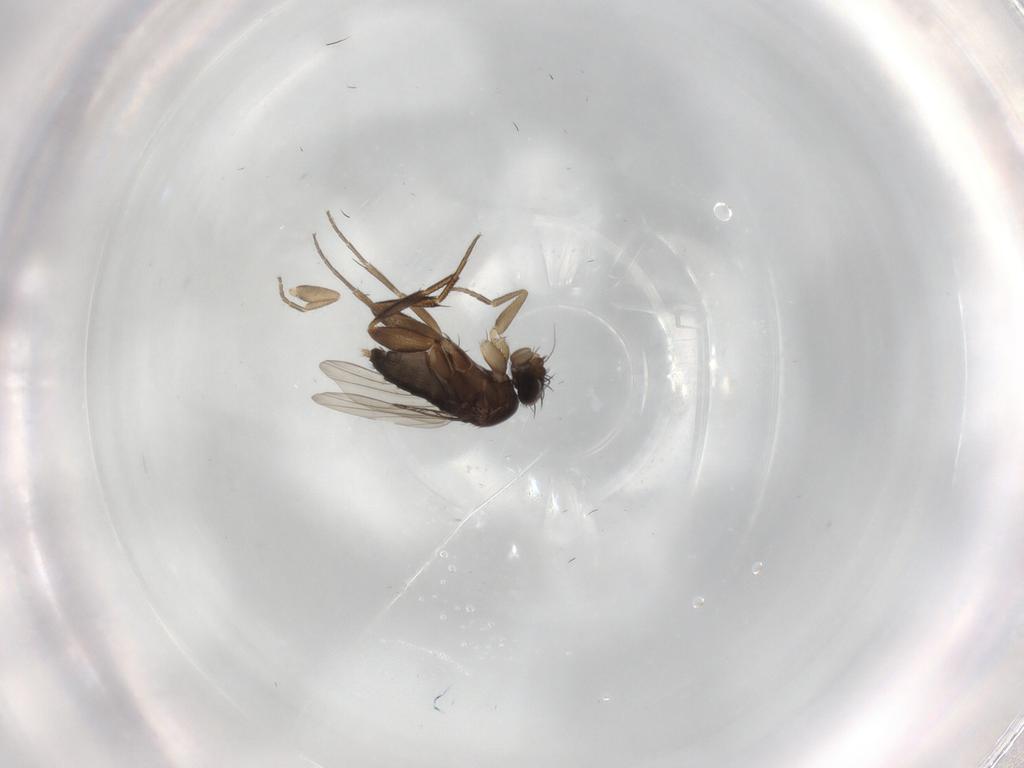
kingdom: Animalia
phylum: Arthropoda
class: Insecta
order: Diptera
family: Phoridae
